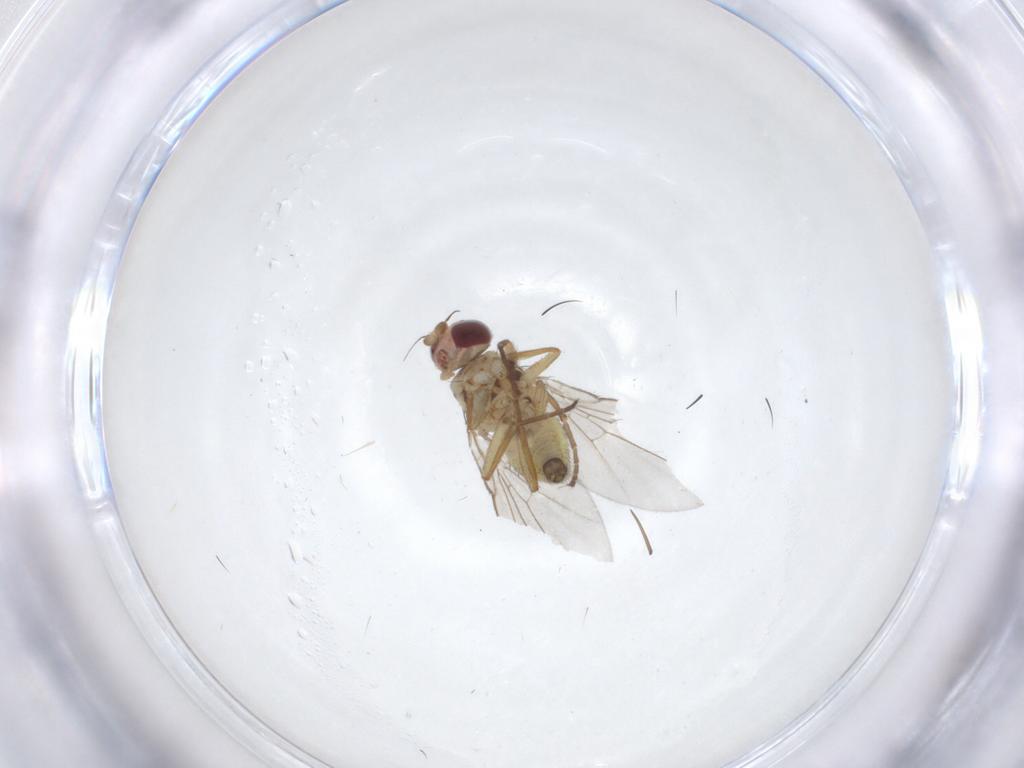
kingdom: Animalia
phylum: Arthropoda
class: Insecta
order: Diptera
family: Agromyzidae
